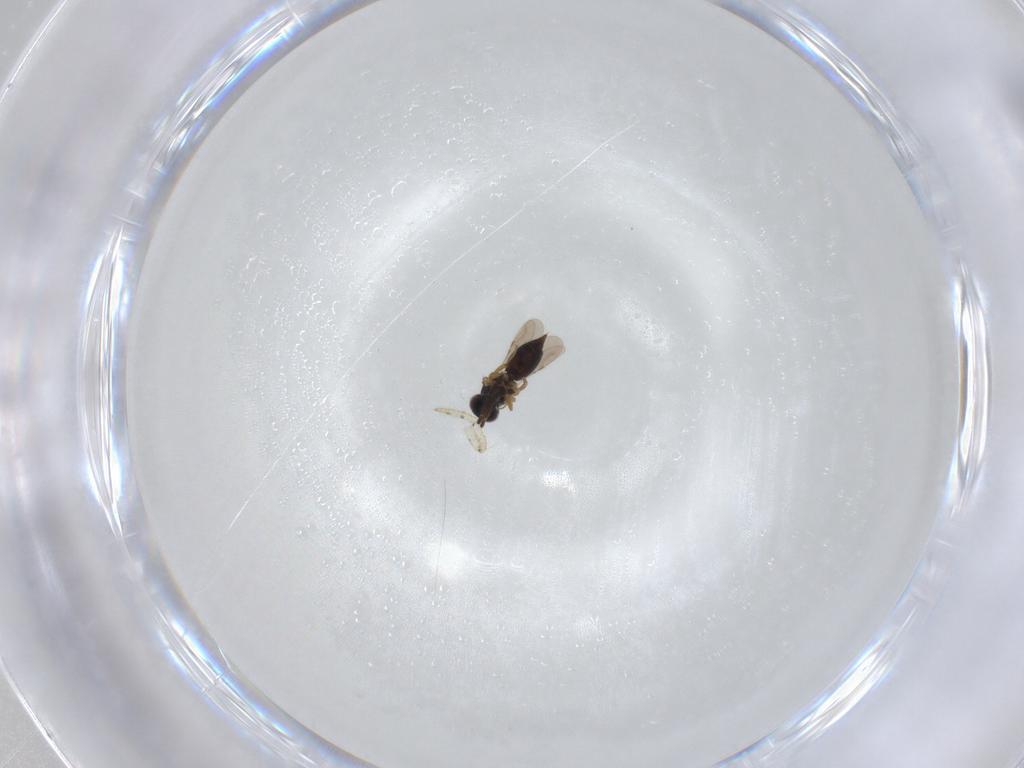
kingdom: Animalia
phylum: Arthropoda
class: Arachnida
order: Araneae
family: Theridiidae
